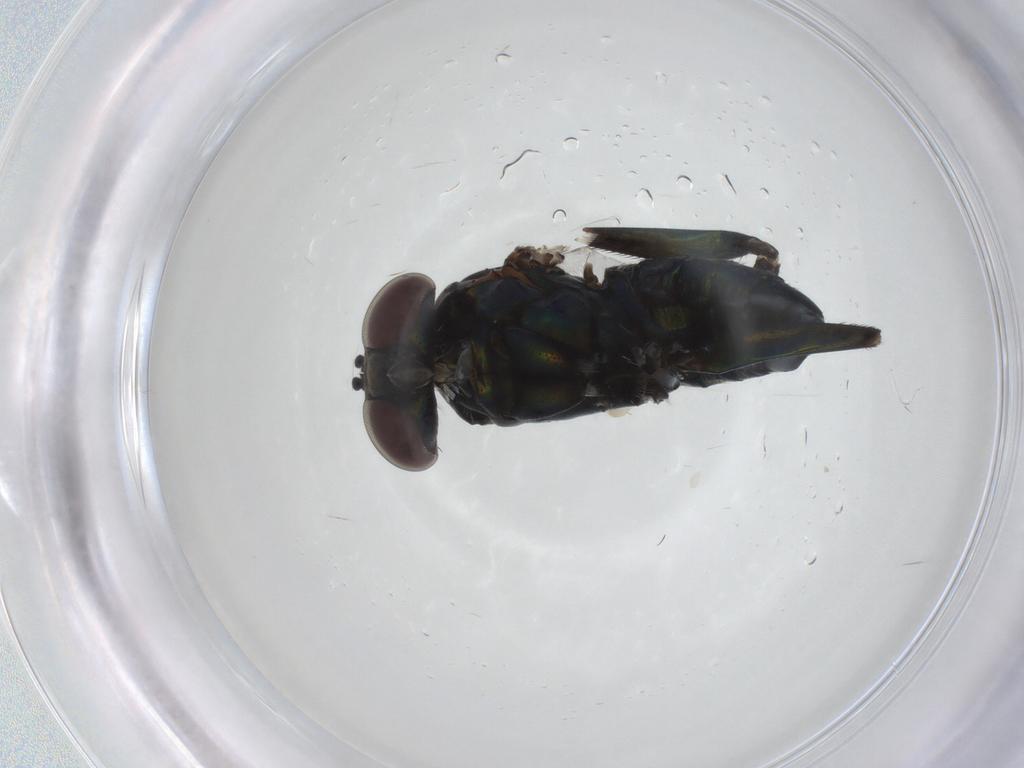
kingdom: Animalia
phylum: Arthropoda
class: Insecta
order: Diptera
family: Dolichopodidae
